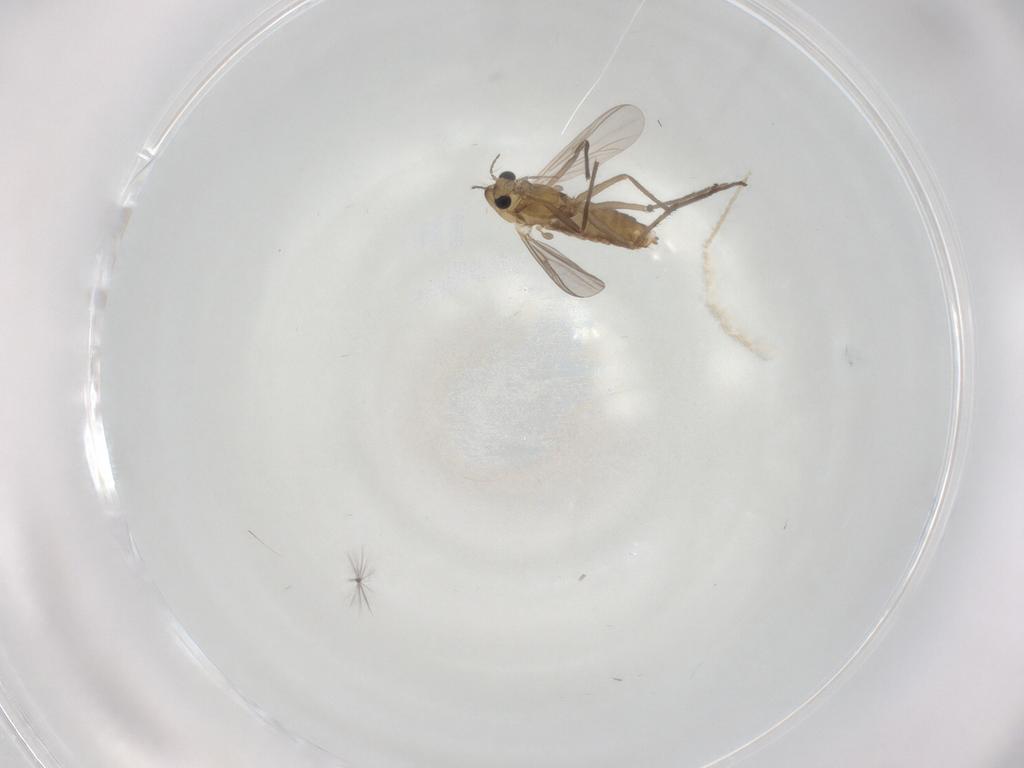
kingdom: Animalia
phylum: Arthropoda
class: Insecta
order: Diptera
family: Chironomidae
